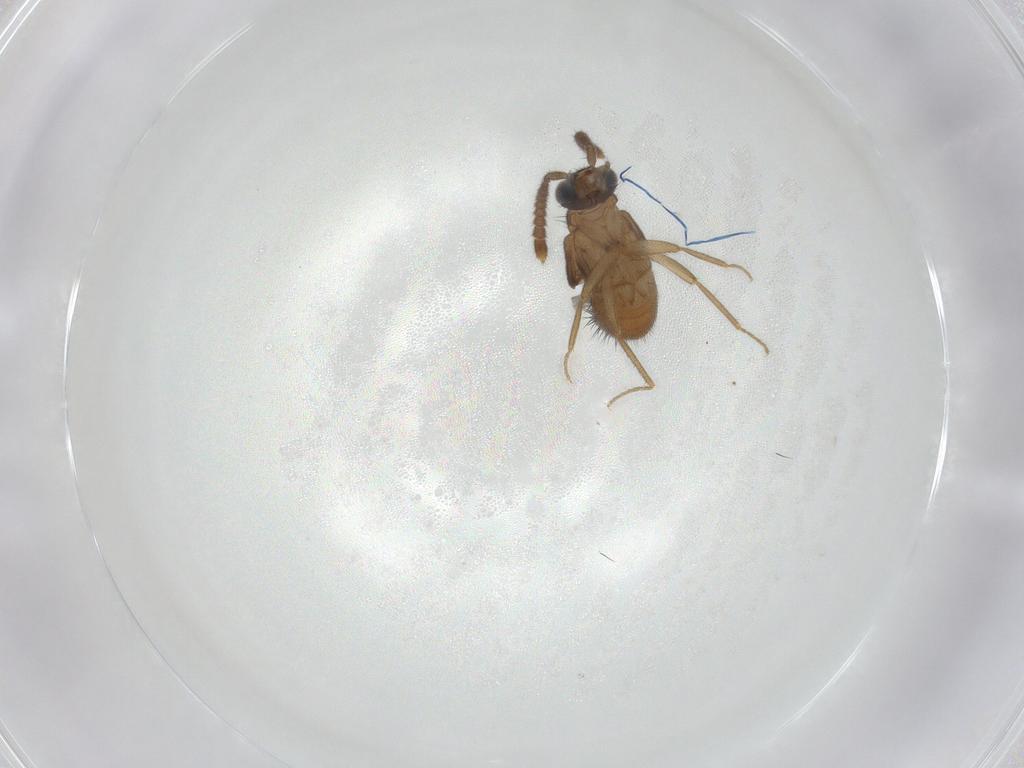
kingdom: Animalia
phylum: Arthropoda
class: Insecta
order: Coleoptera
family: Staphylinidae
